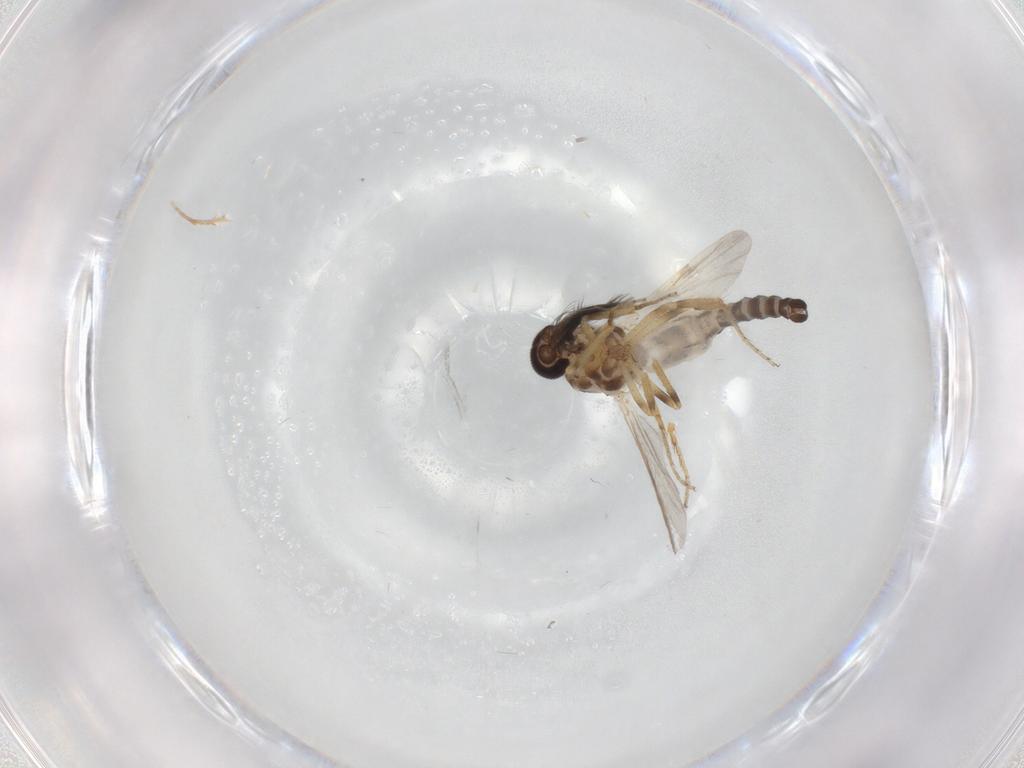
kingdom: Animalia
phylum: Arthropoda
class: Insecta
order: Diptera
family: Ceratopogonidae
